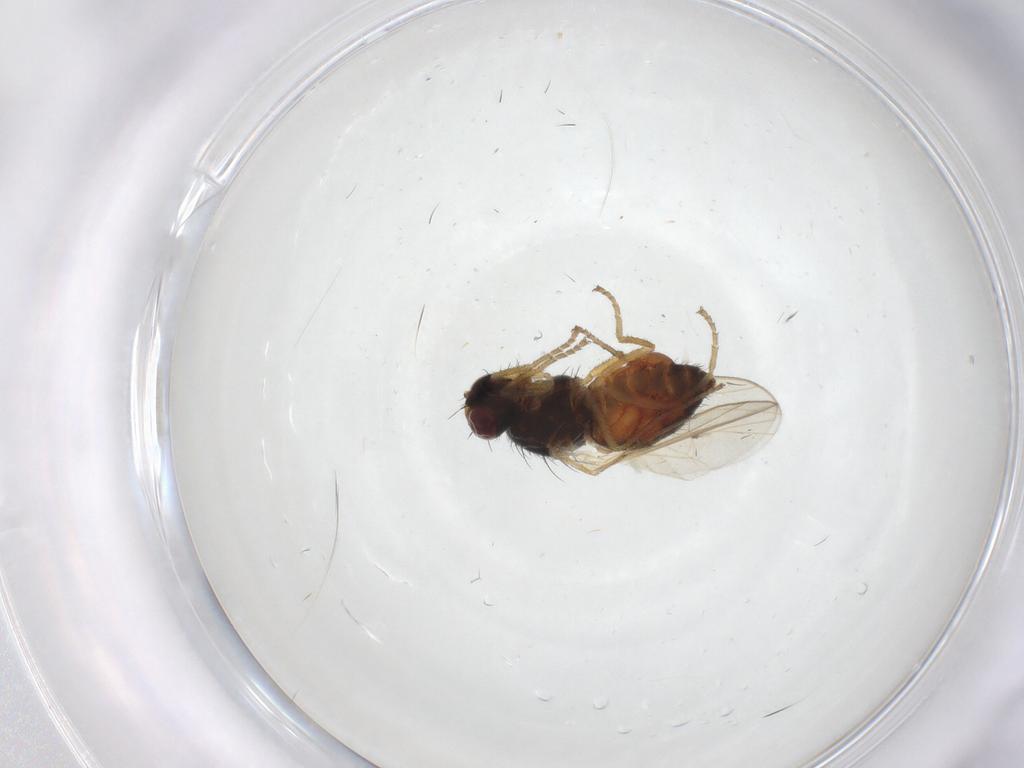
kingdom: Animalia
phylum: Arthropoda
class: Insecta
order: Diptera
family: Heleomyzidae
